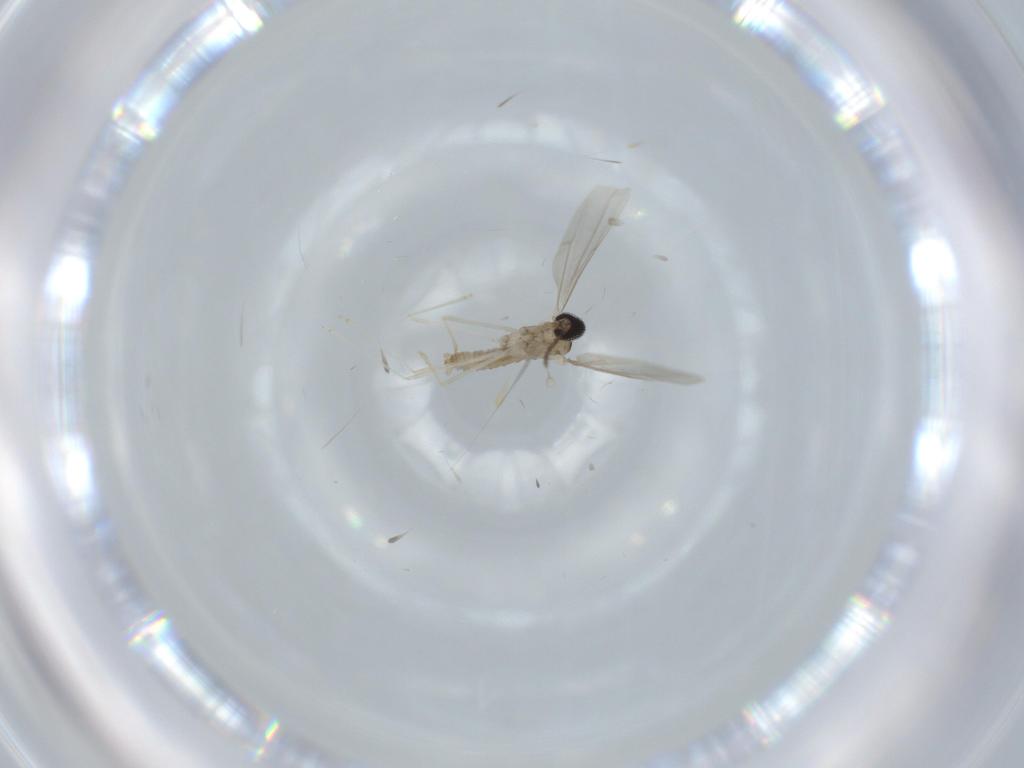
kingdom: Animalia
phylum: Arthropoda
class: Insecta
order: Diptera
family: Cecidomyiidae
